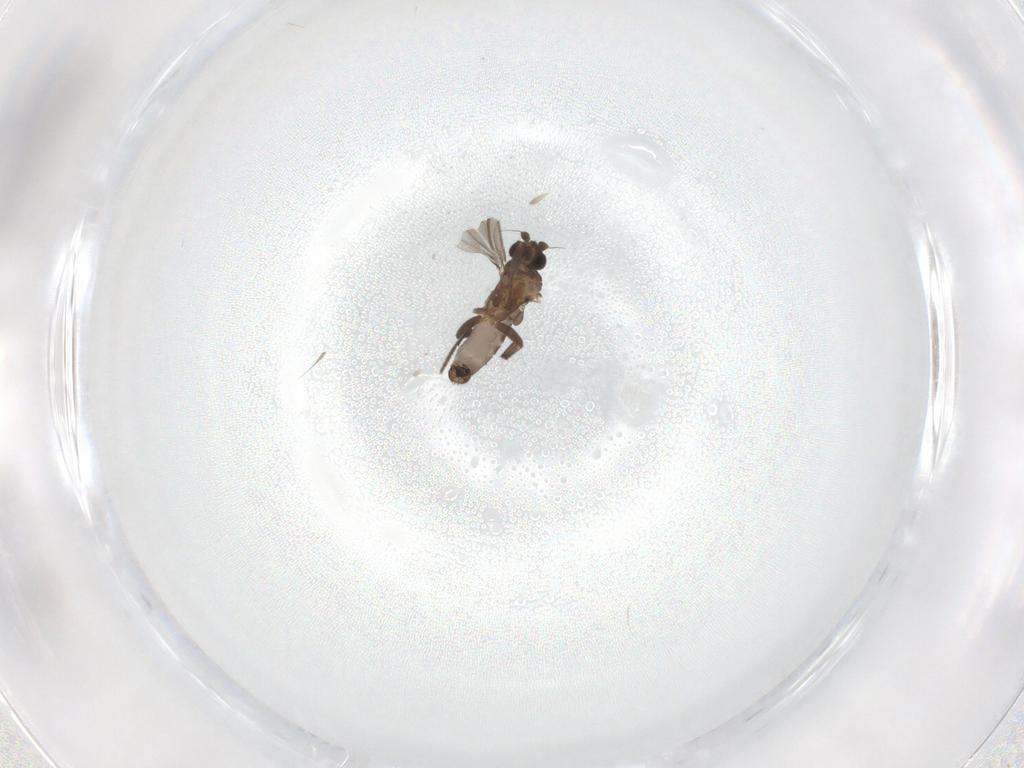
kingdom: Animalia
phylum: Arthropoda
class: Insecta
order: Diptera
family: Phoridae
